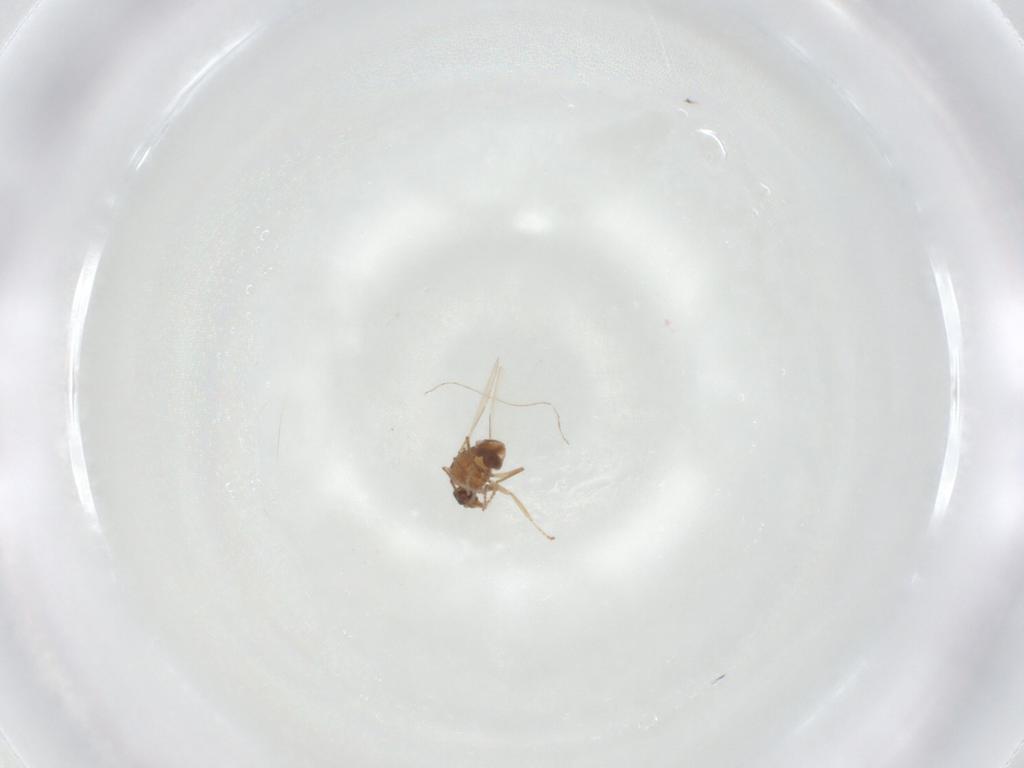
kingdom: Animalia
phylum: Arthropoda
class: Insecta
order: Diptera
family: Ceratopogonidae
